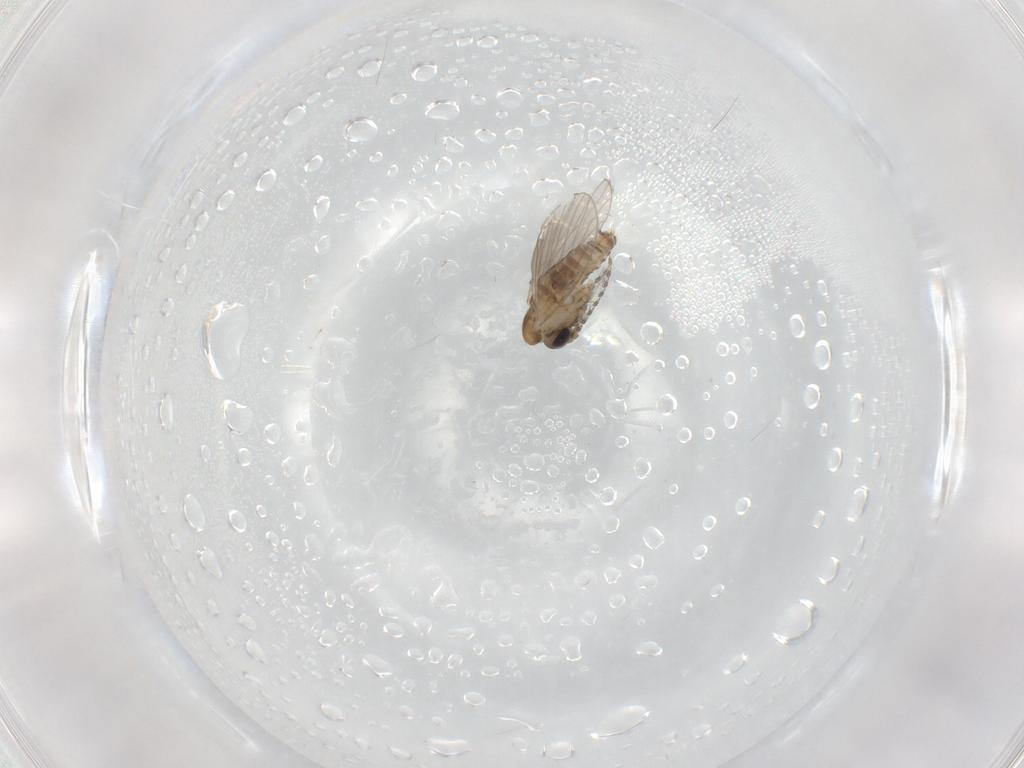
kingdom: Animalia
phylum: Arthropoda
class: Insecta
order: Diptera
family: Psychodidae
